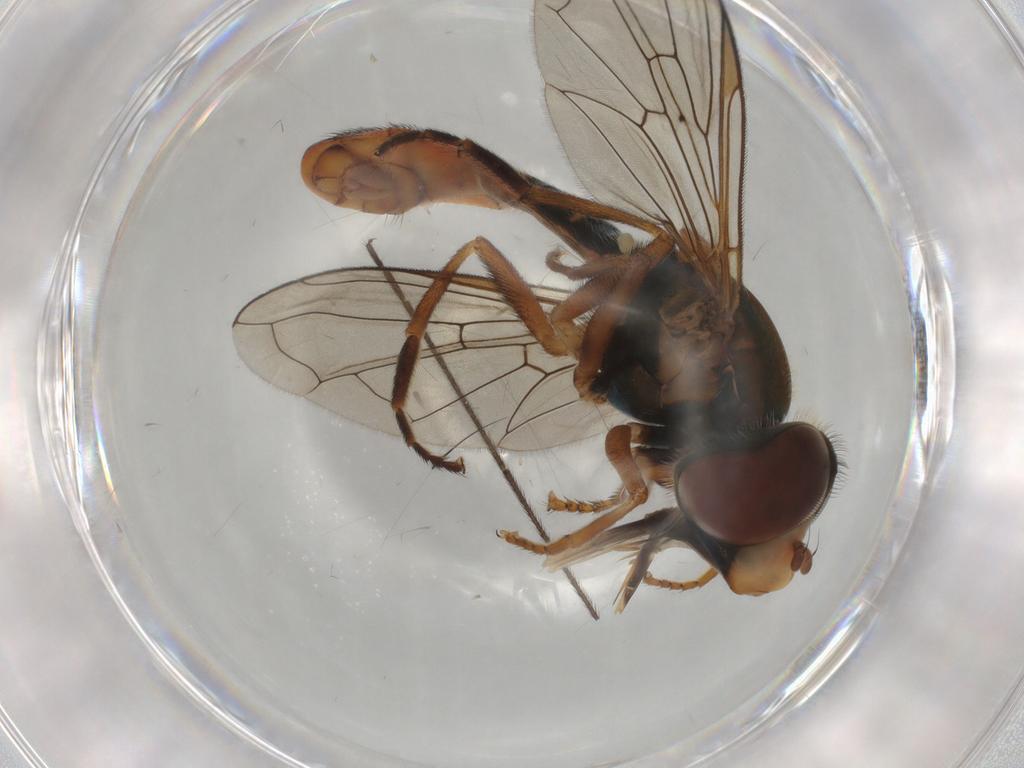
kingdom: Animalia
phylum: Arthropoda
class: Insecta
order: Diptera
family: Syrphidae
